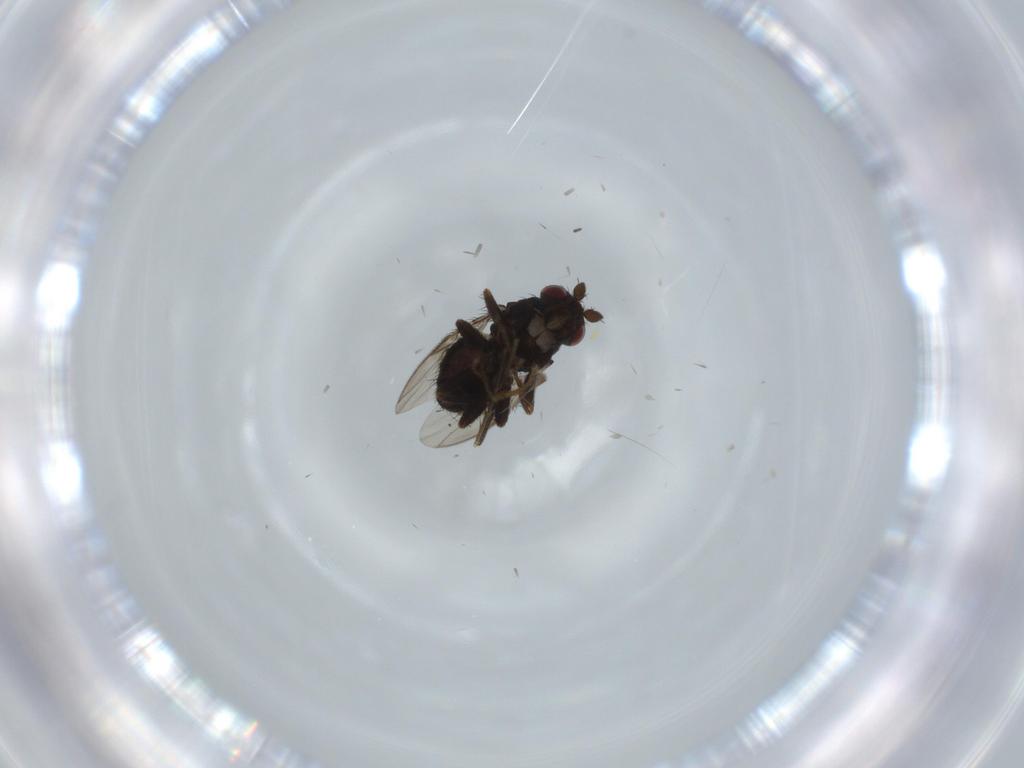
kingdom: Animalia
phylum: Arthropoda
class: Insecta
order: Diptera
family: Sphaeroceridae
